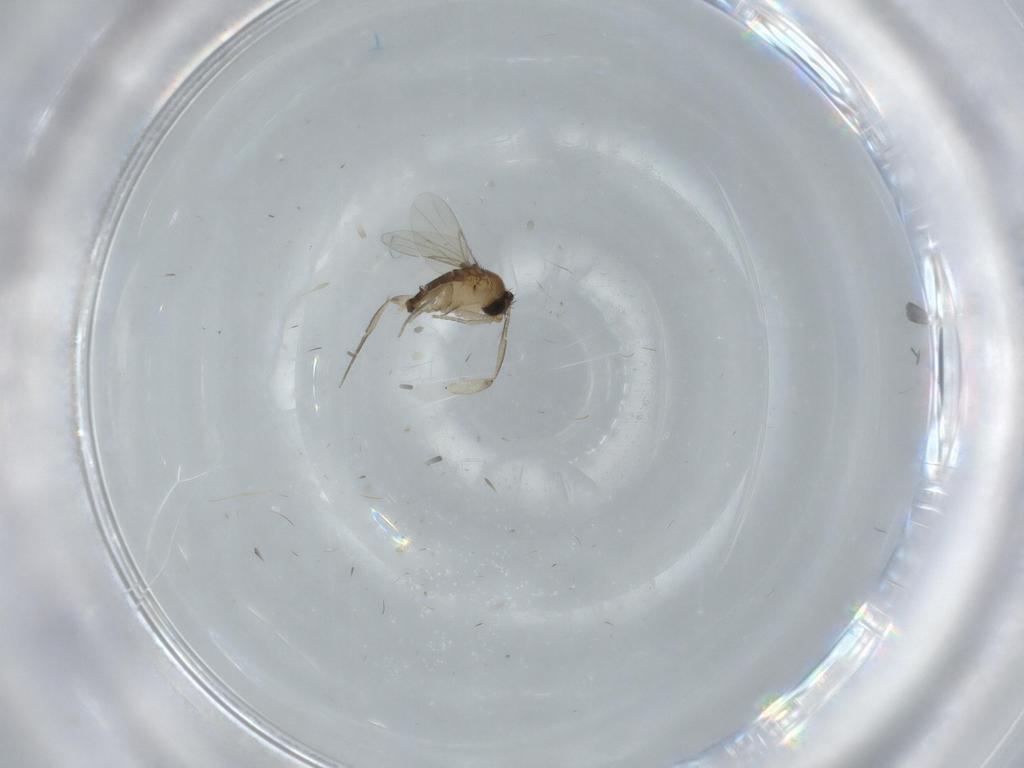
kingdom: Animalia
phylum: Arthropoda
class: Insecta
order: Diptera
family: Phoridae
